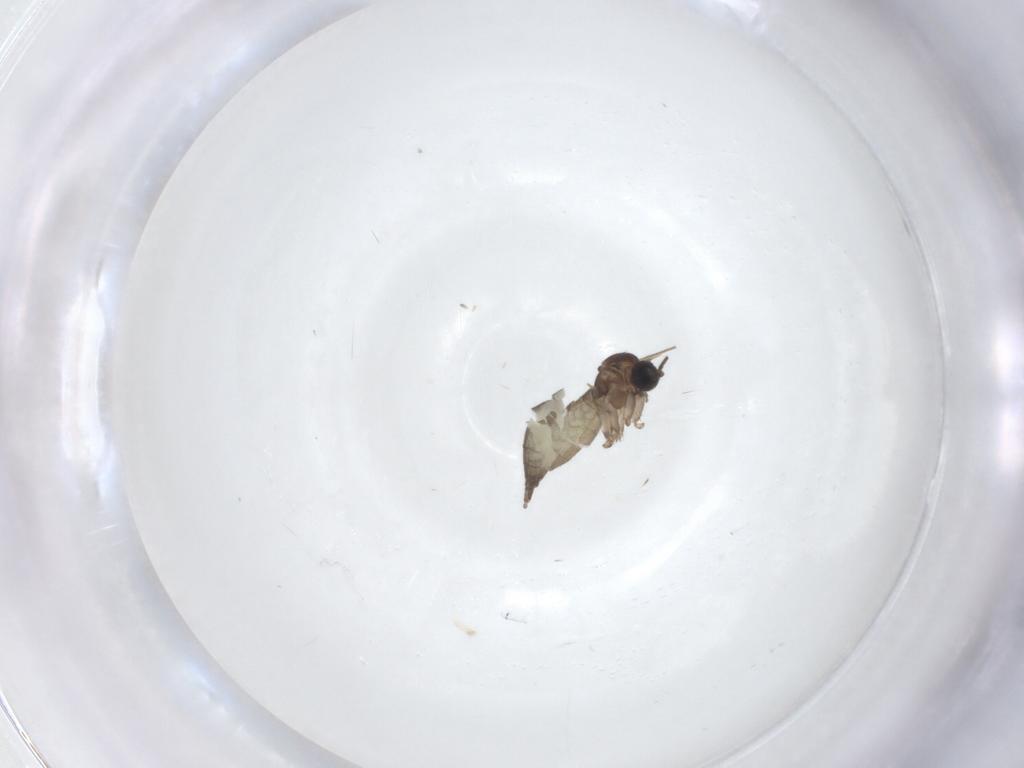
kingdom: Animalia
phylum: Arthropoda
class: Insecta
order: Diptera
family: Sciaridae
